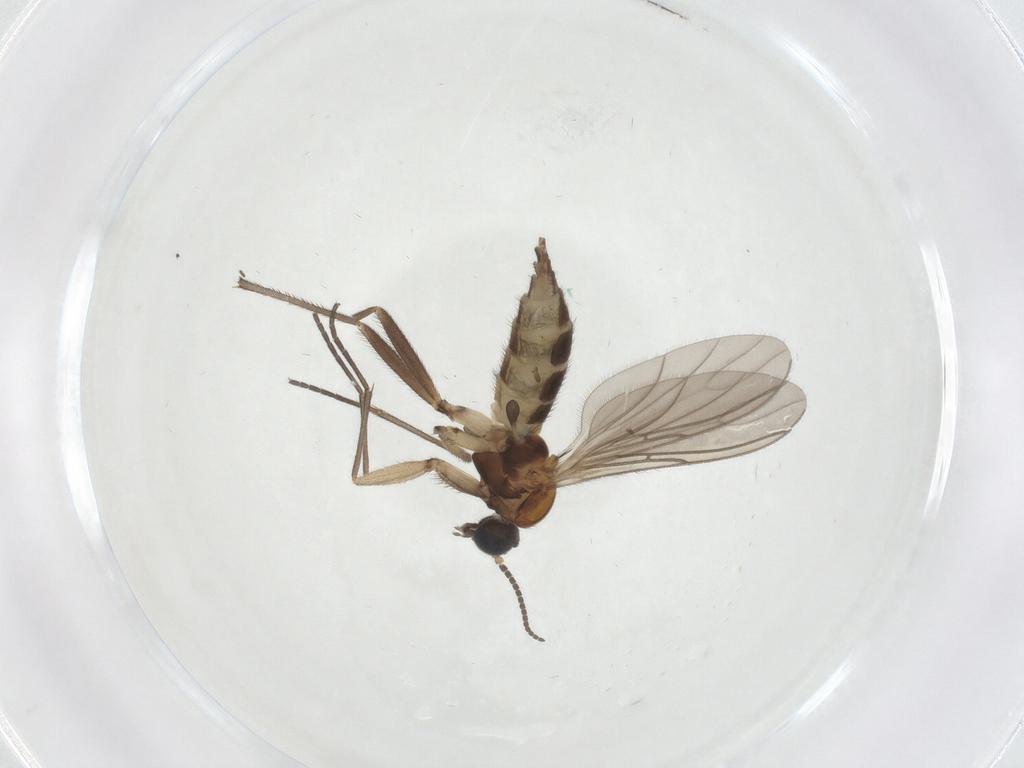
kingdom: Animalia
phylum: Arthropoda
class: Insecta
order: Diptera
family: Sciaridae
